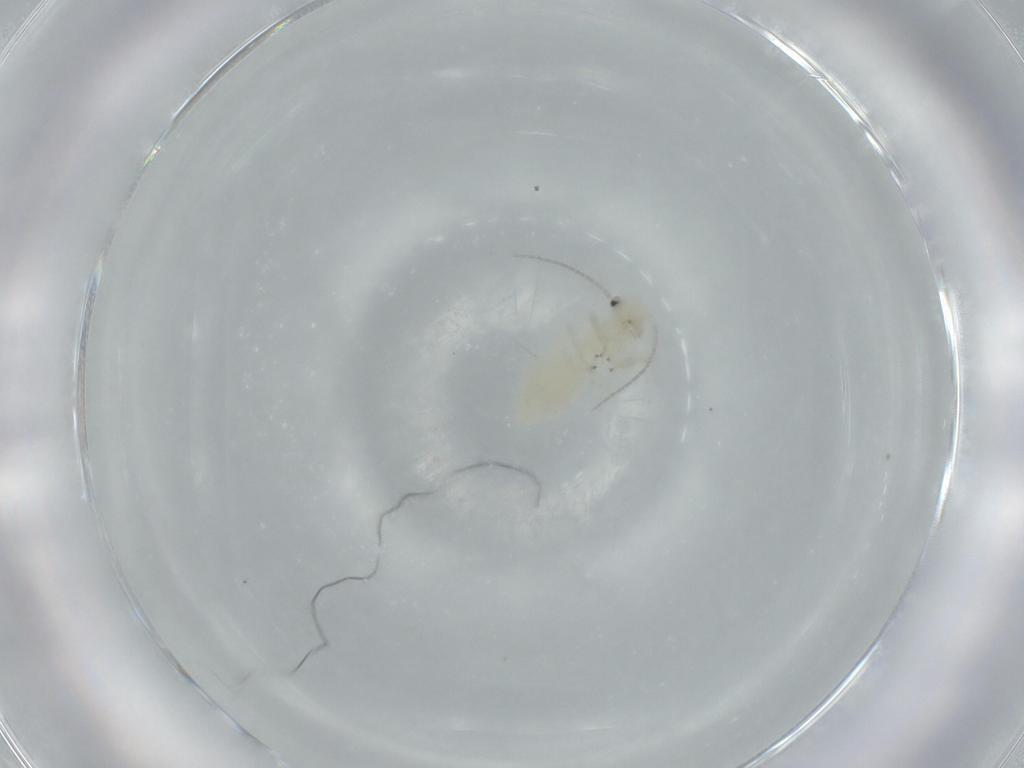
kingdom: Animalia
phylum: Arthropoda
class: Insecta
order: Psocodea
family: Caeciliusidae
